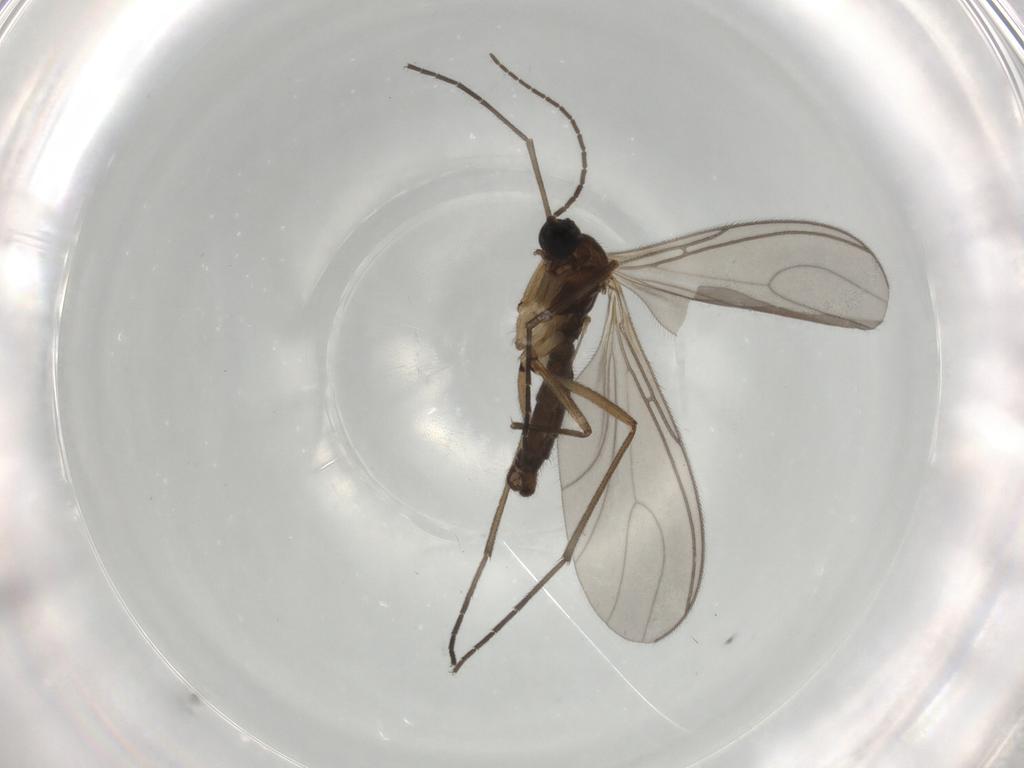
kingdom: Animalia
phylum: Arthropoda
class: Insecta
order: Diptera
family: Sciaridae
